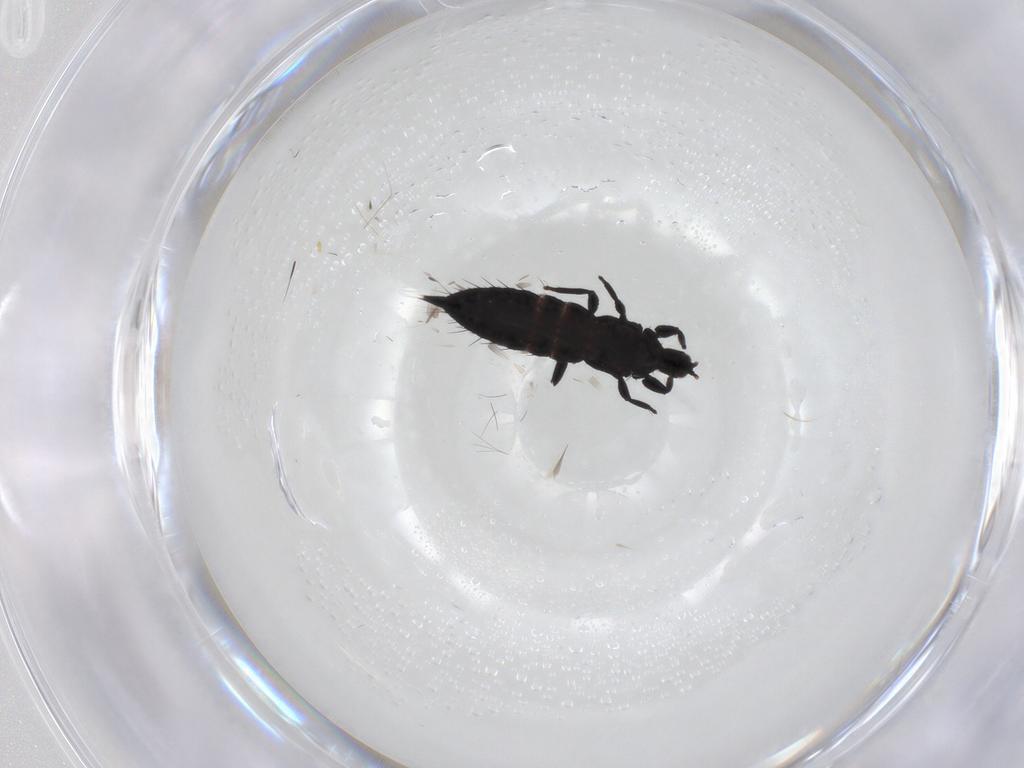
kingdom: Animalia
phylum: Arthropoda
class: Insecta
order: Thysanoptera
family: Phlaeothripidae
